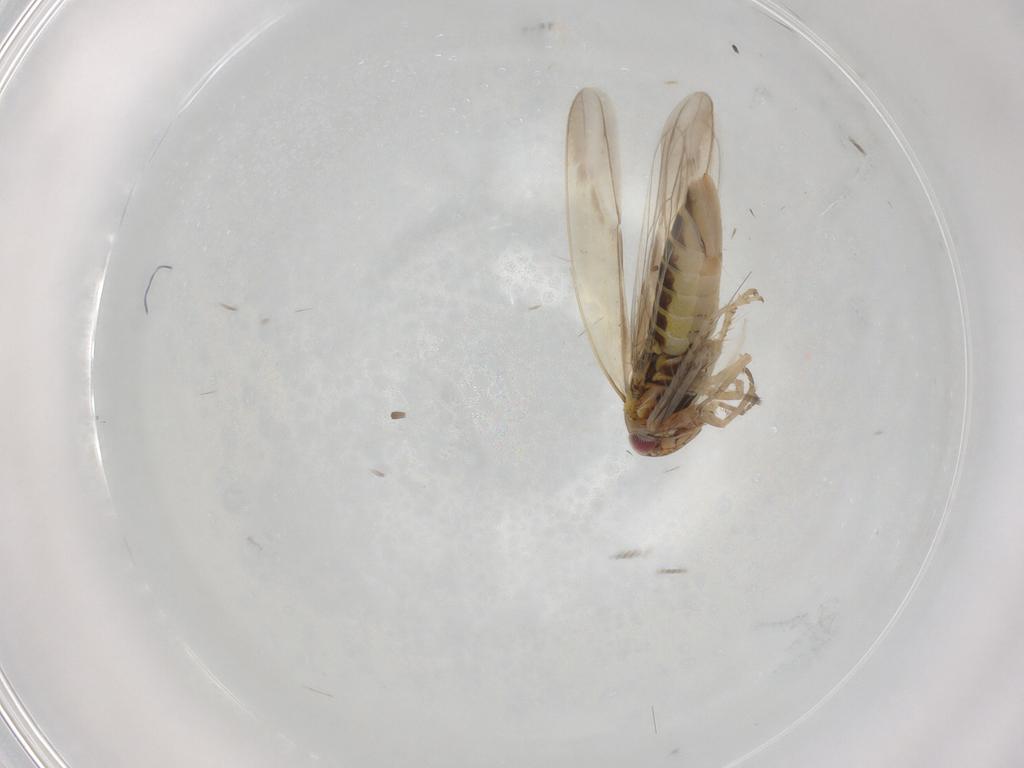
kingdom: Animalia
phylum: Arthropoda
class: Insecta
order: Hemiptera
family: Cicadellidae
